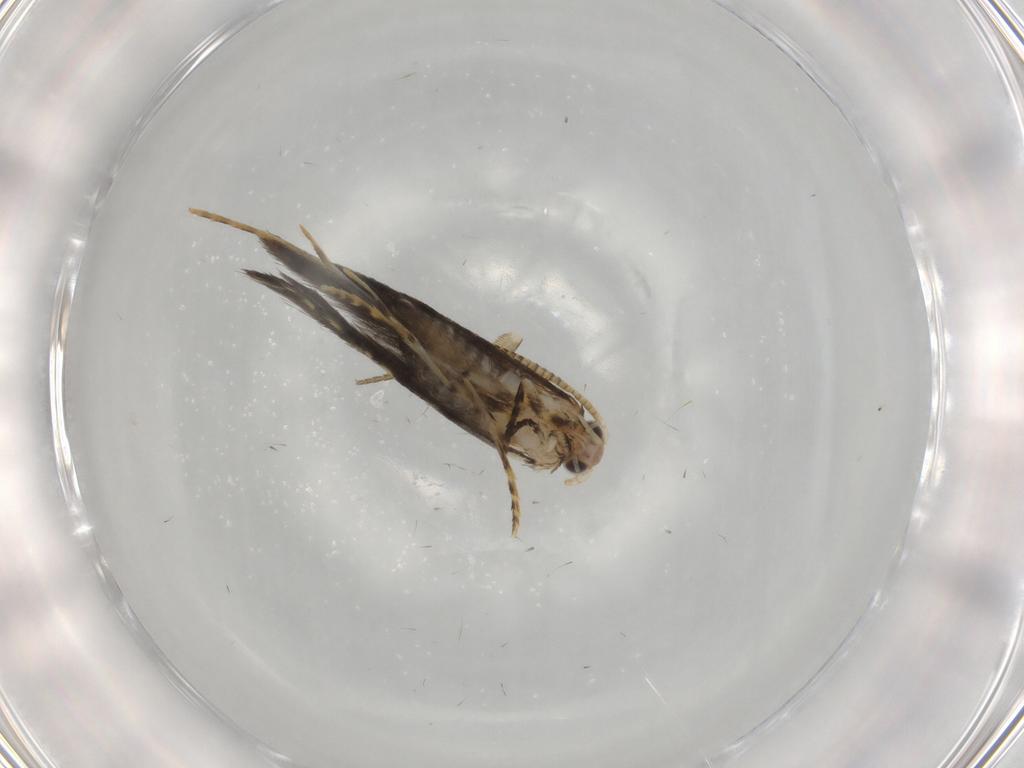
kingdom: Animalia
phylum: Arthropoda
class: Insecta
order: Lepidoptera
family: Tineidae
